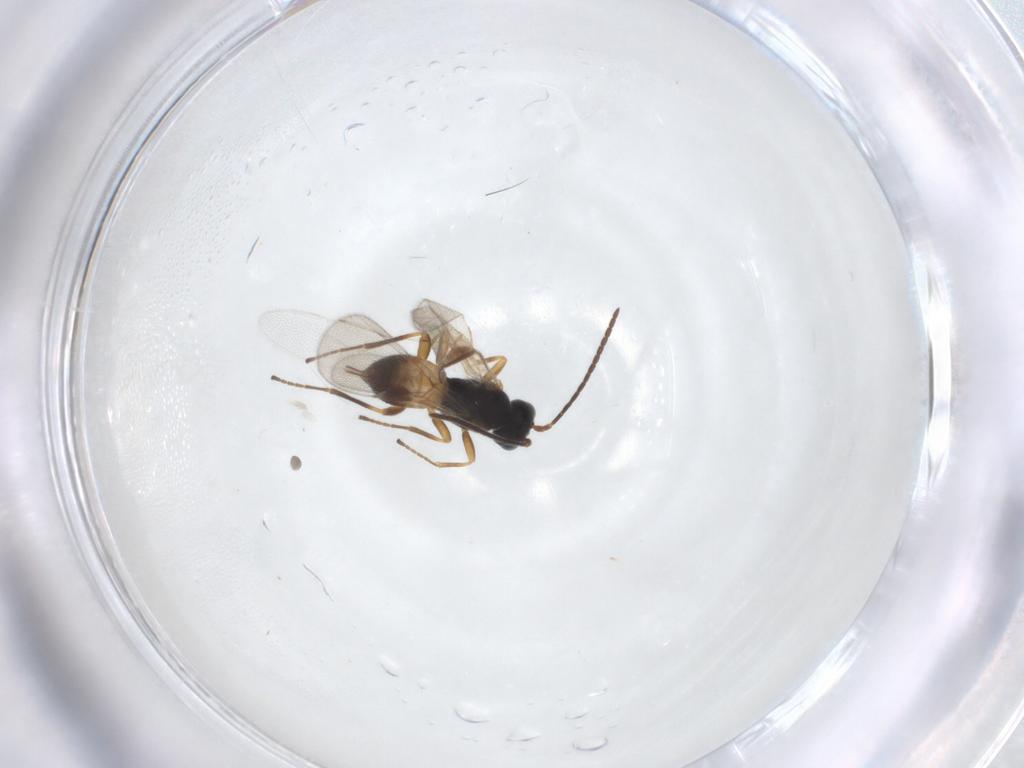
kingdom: Animalia
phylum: Arthropoda
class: Insecta
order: Hymenoptera
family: Braconidae
